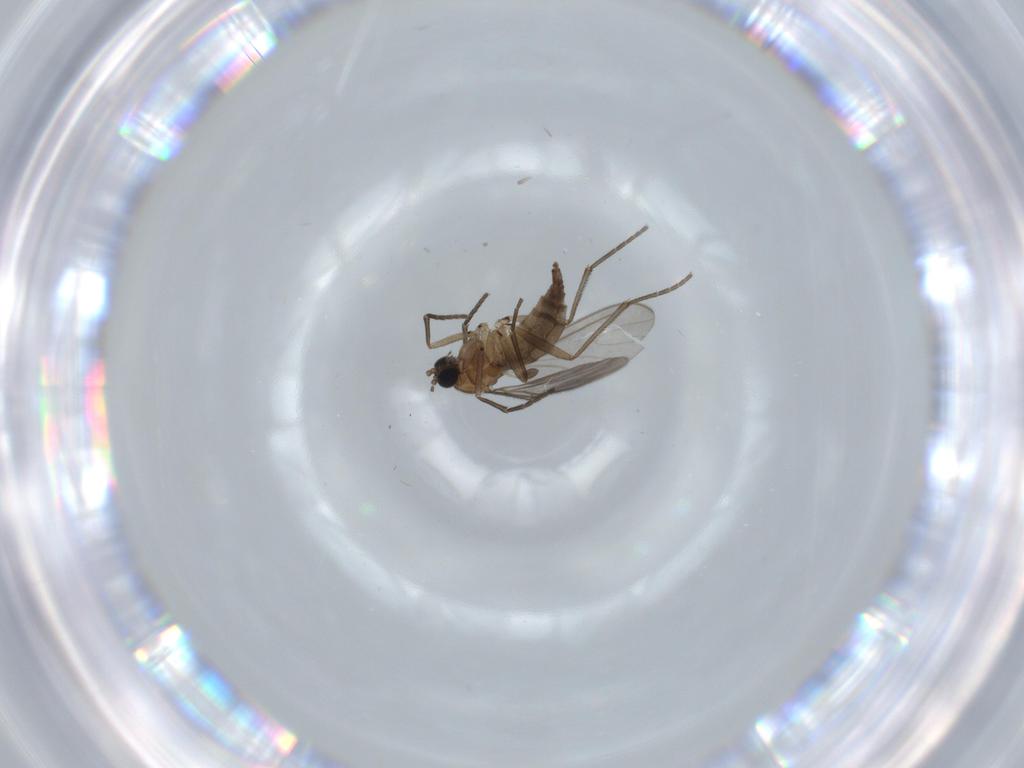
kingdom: Animalia
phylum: Arthropoda
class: Insecta
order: Diptera
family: Sciaridae
